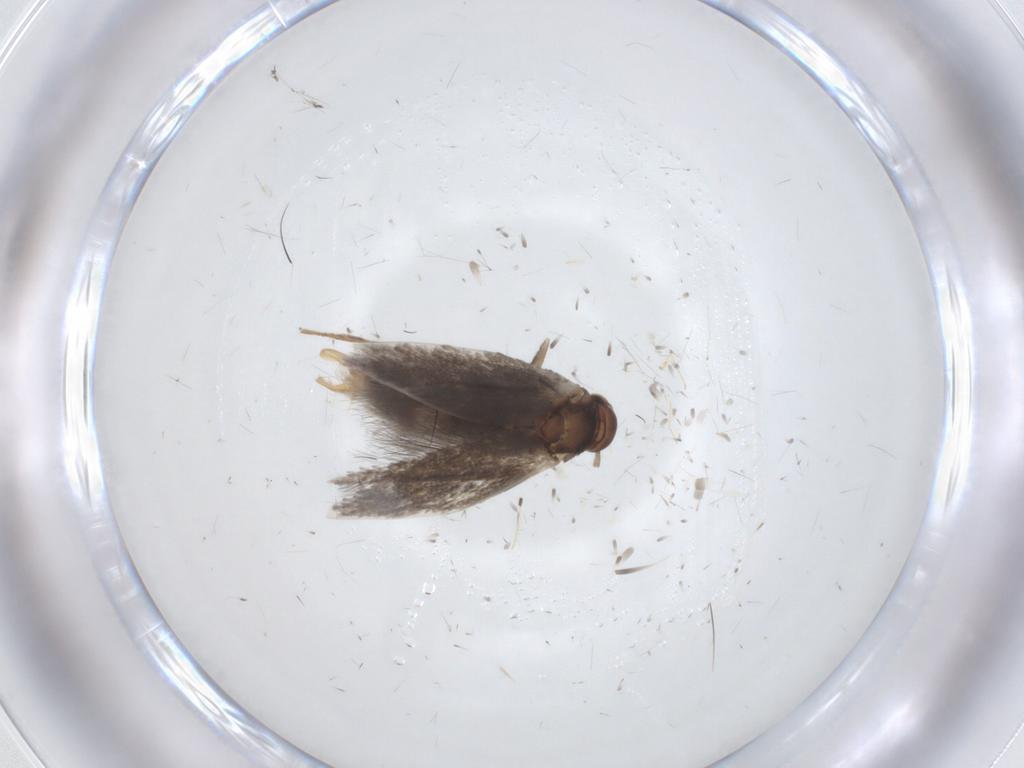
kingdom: Animalia
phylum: Arthropoda
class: Insecta
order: Lepidoptera
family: Elachistidae
